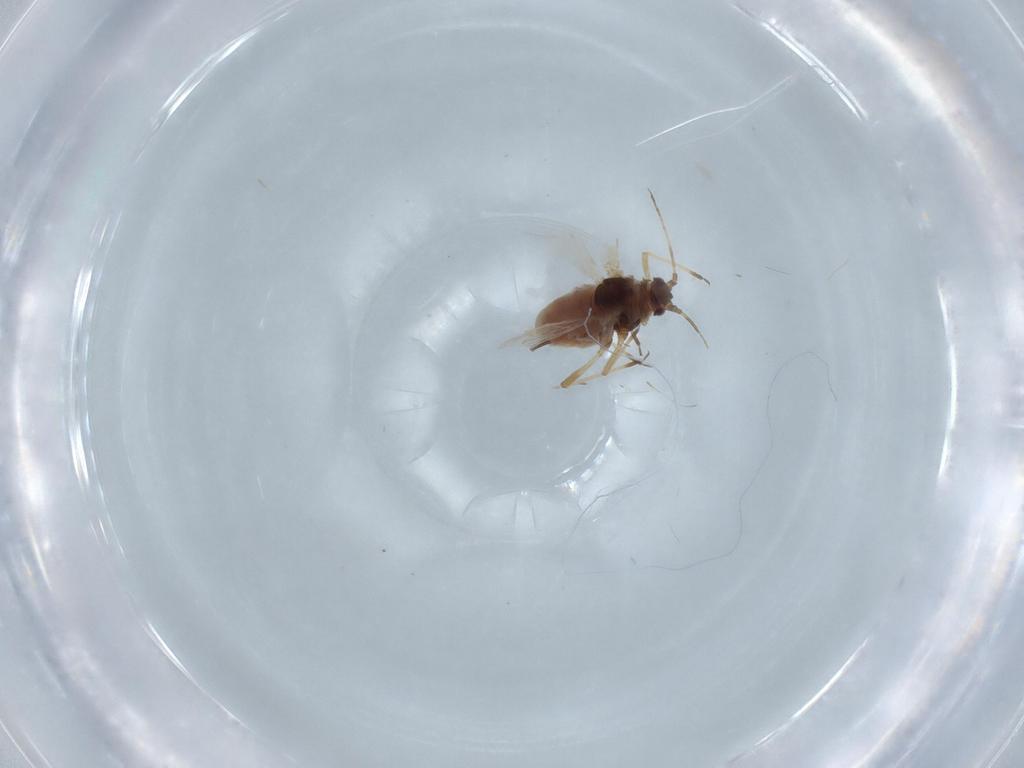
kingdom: Animalia
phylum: Arthropoda
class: Insecta
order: Hemiptera
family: Aphididae
